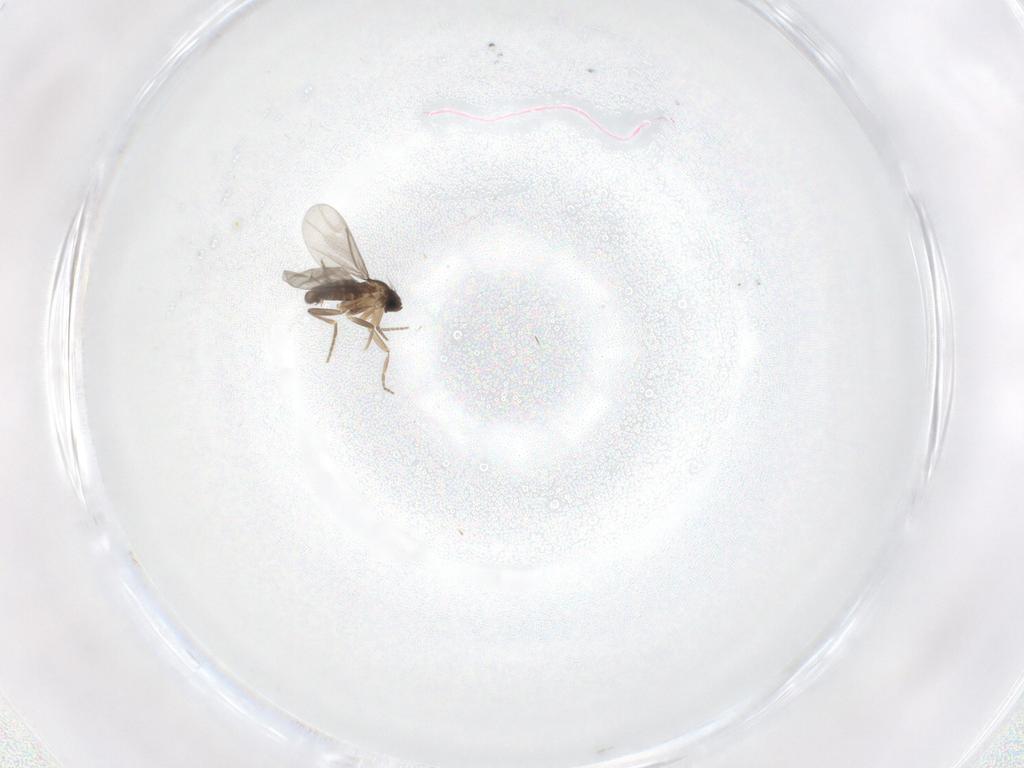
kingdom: Animalia
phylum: Arthropoda
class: Insecta
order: Diptera
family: Chironomidae
